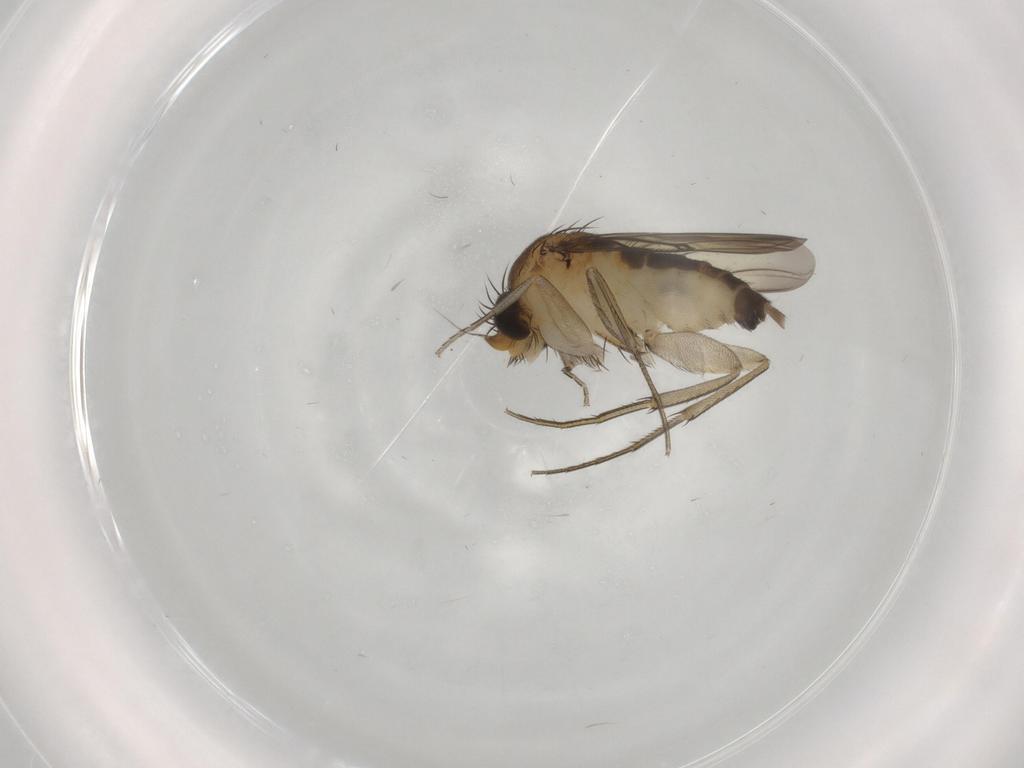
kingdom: Animalia
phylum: Arthropoda
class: Insecta
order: Diptera
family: Phoridae
